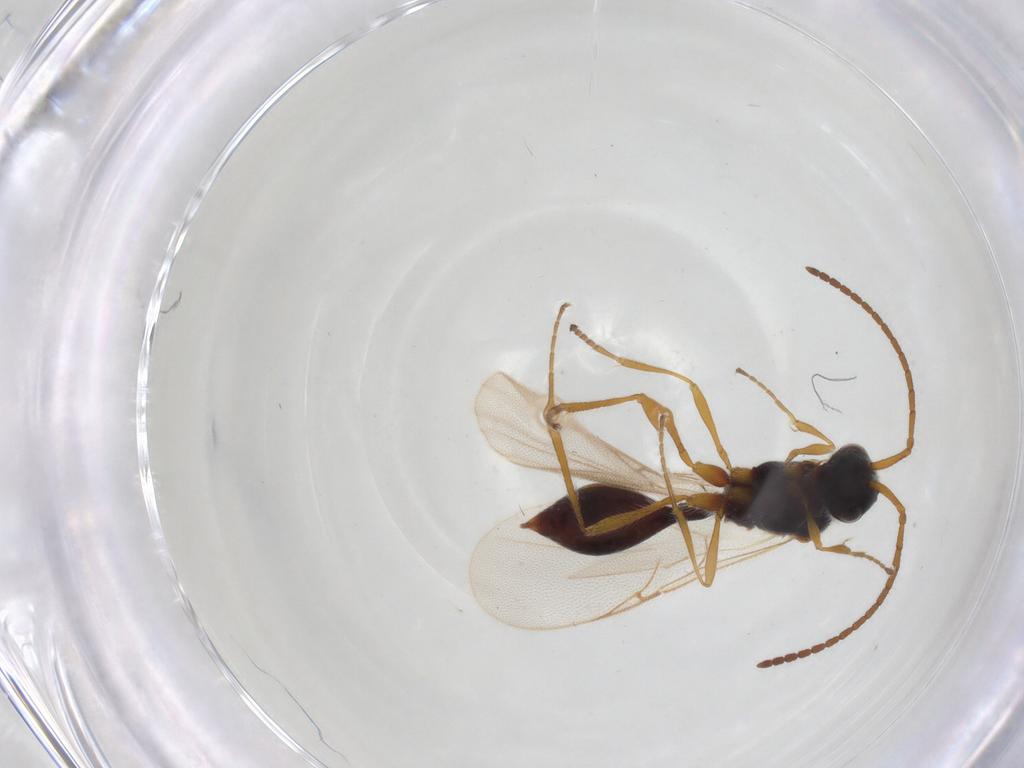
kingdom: Animalia
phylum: Arthropoda
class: Insecta
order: Hymenoptera
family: Diapriidae
